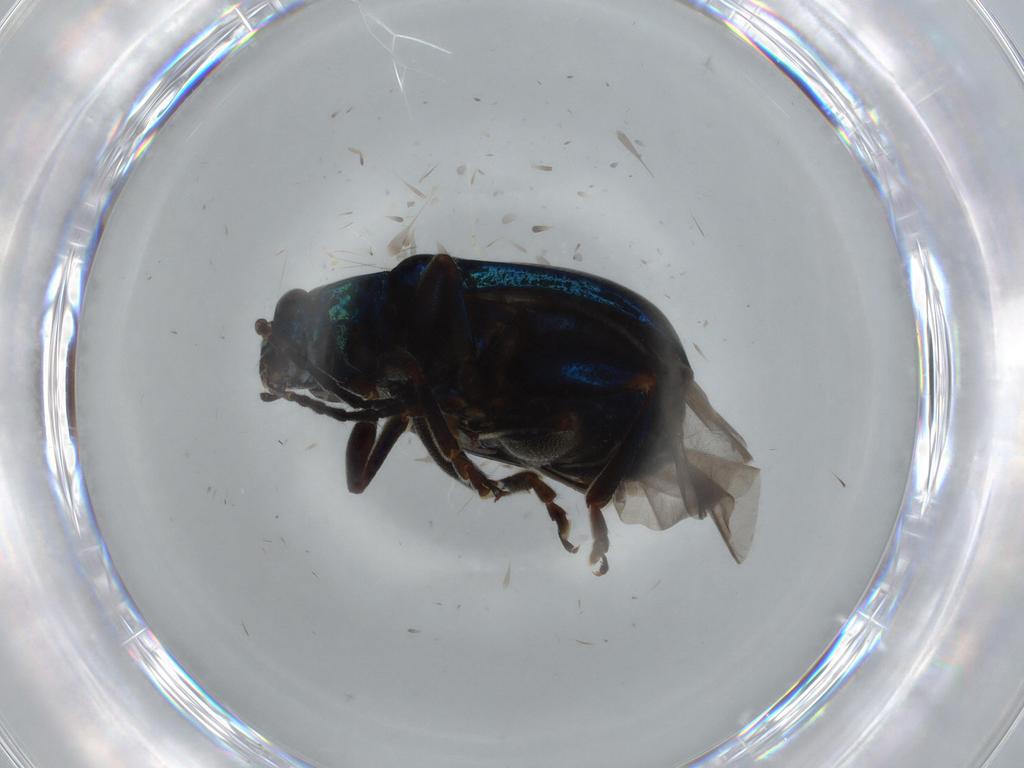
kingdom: Animalia
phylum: Arthropoda
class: Insecta
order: Coleoptera
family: Chrysomelidae
